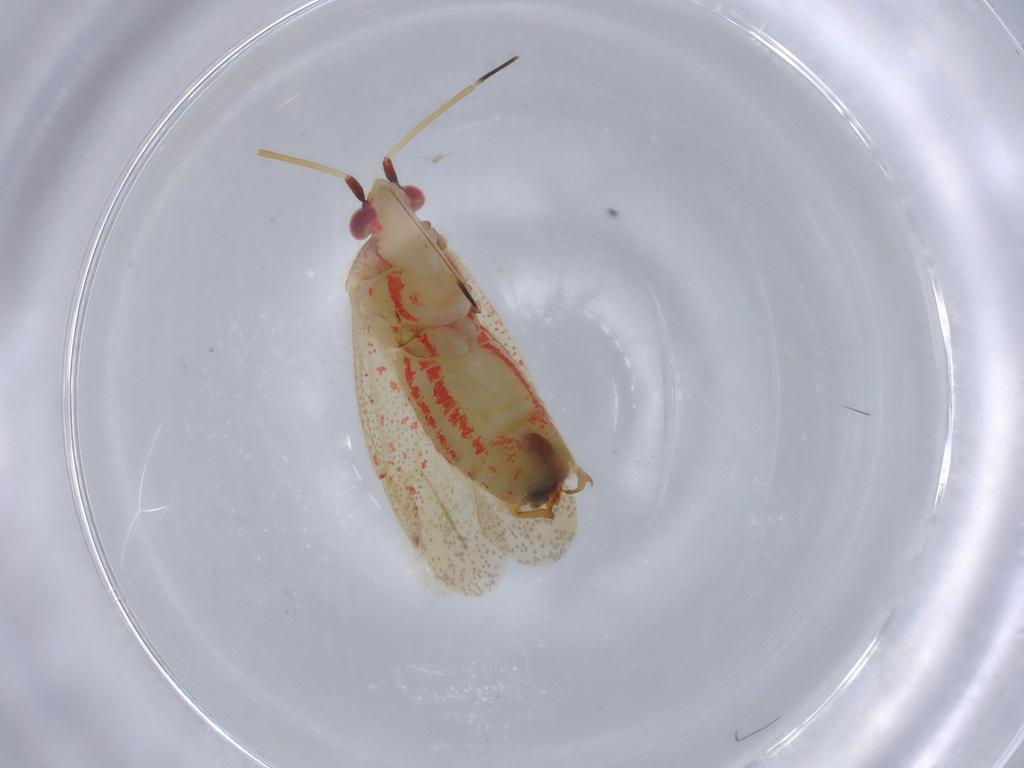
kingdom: Animalia
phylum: Arthropoda
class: Insecta
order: Hemiptera
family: Miridae
